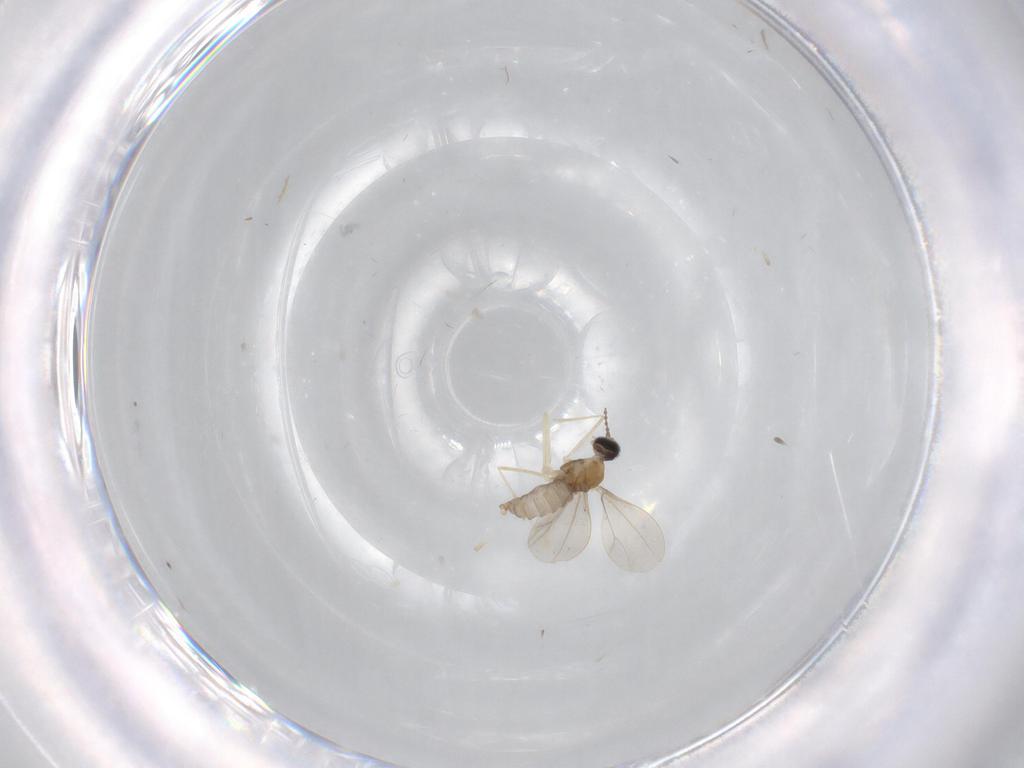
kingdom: Animalia
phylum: Arthropoda
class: Insecta
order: Diptera
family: Cecidomyiidae
